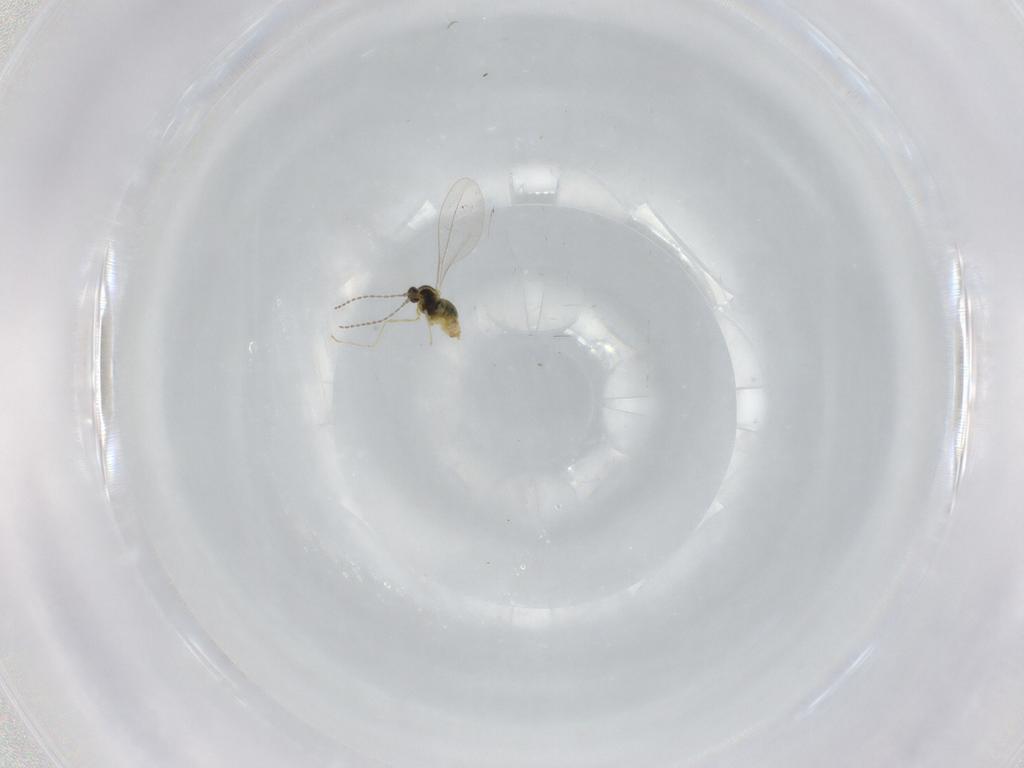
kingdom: Animalia
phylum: Arthropoda
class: Insecta
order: Diptera
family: Cecidomyiidae
